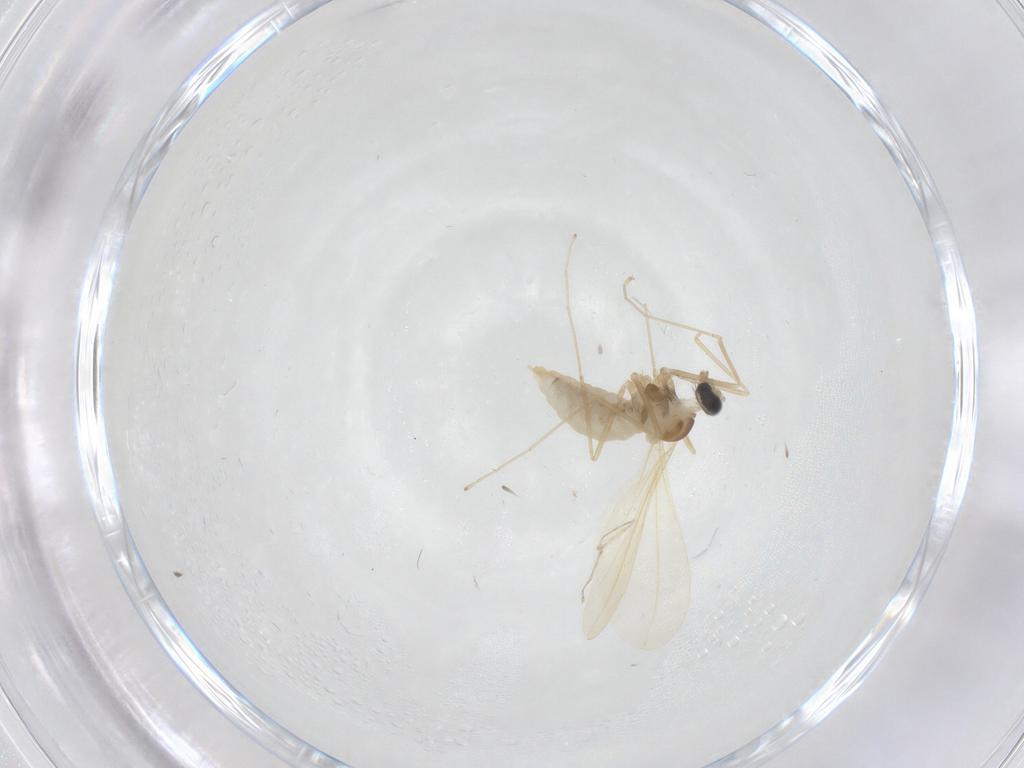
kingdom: Animalia
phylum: Arthropoda
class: Insecta
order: Diptera
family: Cecidomyiidae
